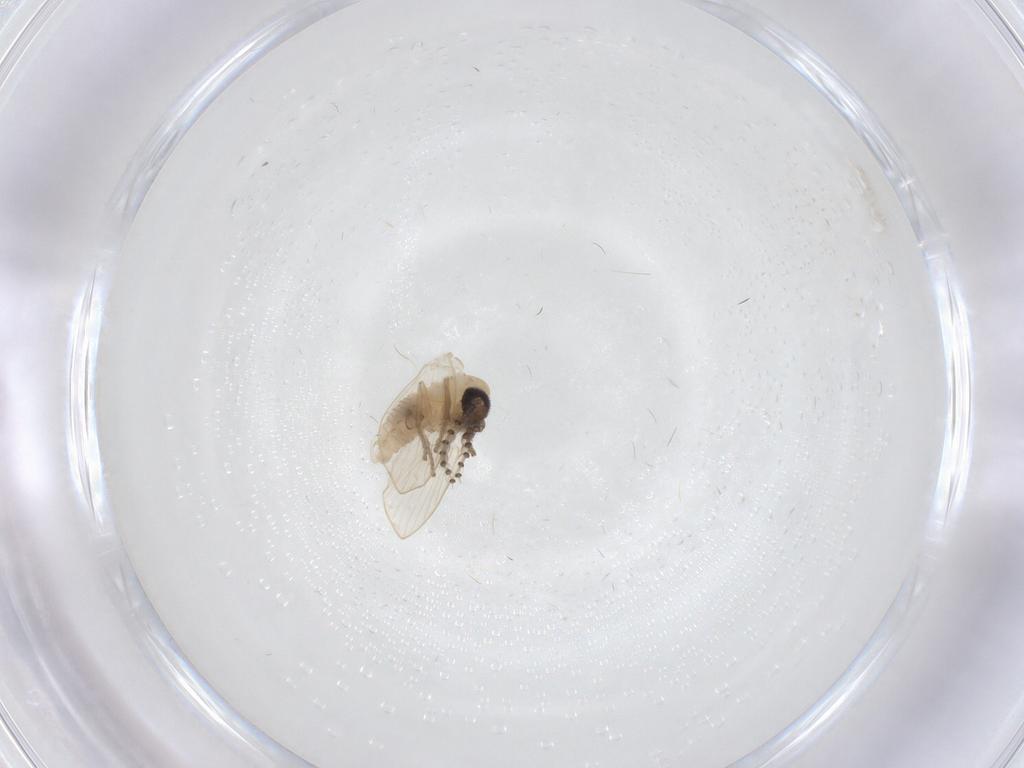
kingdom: Animalia
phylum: Arthropoda
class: Insecta
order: Diptera
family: Psychodidae
